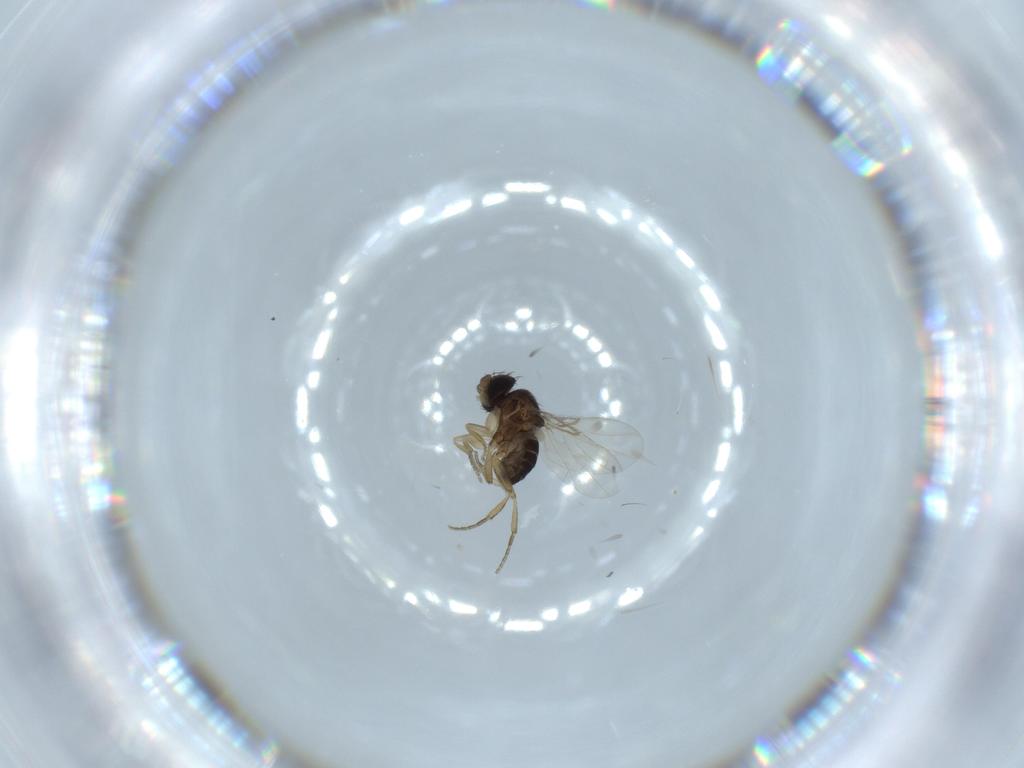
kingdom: Animalia
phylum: Arthropoda
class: Insecta
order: Diptera
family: Phoridae
